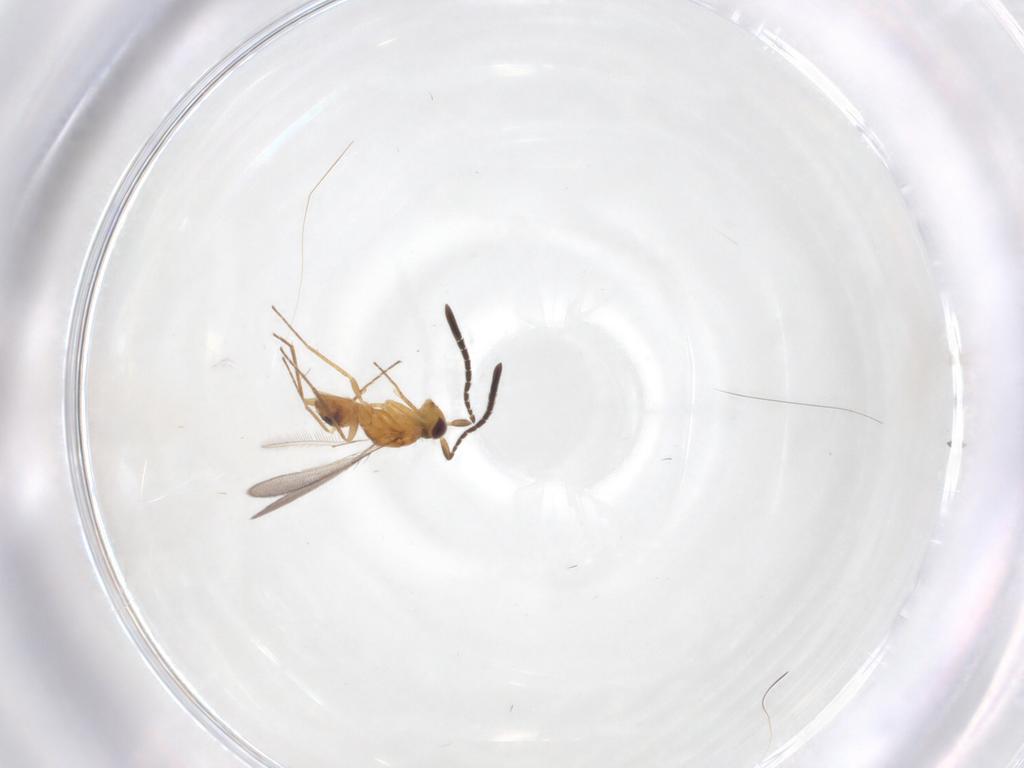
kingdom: Animalia
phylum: Arthropoda
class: Insecta
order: Hymenoptera
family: Mymaridae
